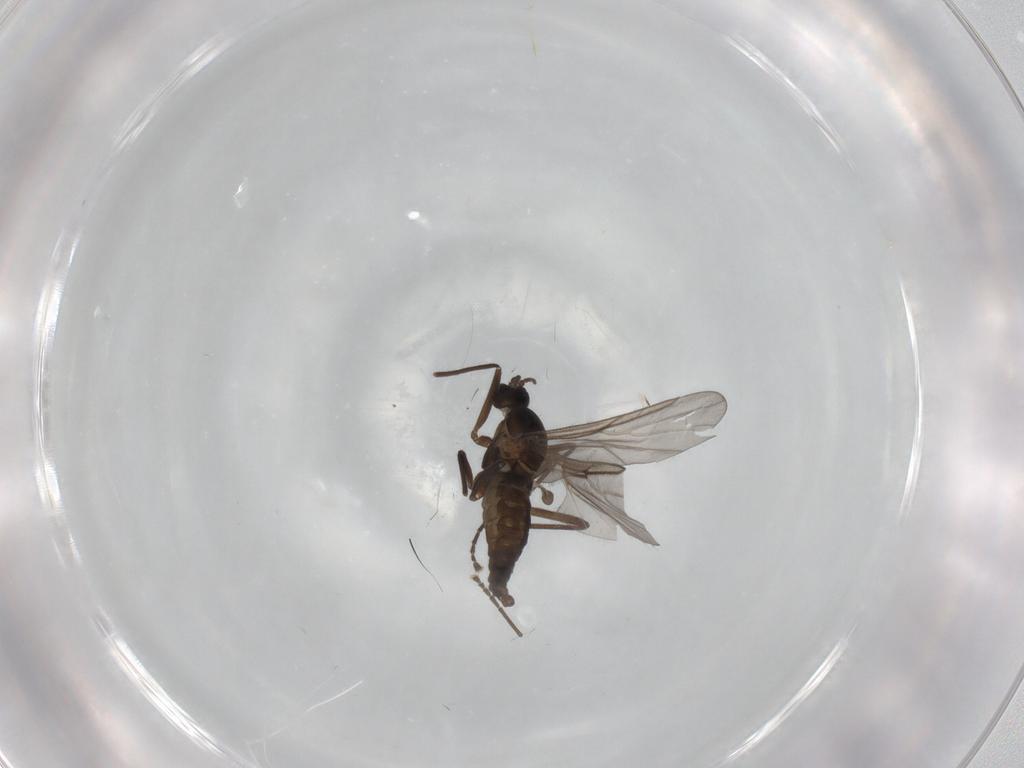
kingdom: Animalia
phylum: Arthropoda
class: Insecta
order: Diptera
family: Cecidomyiidae
